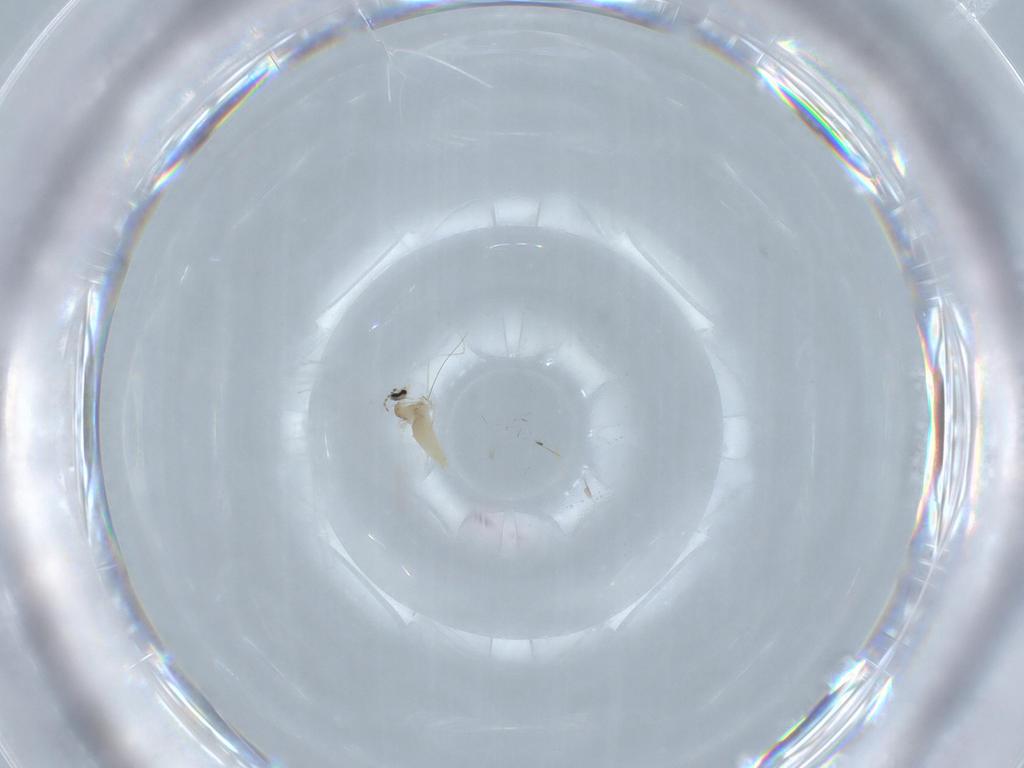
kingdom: Animalia
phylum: Arthropoda
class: Insecta
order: Diptera
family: Cecidomyiidae
